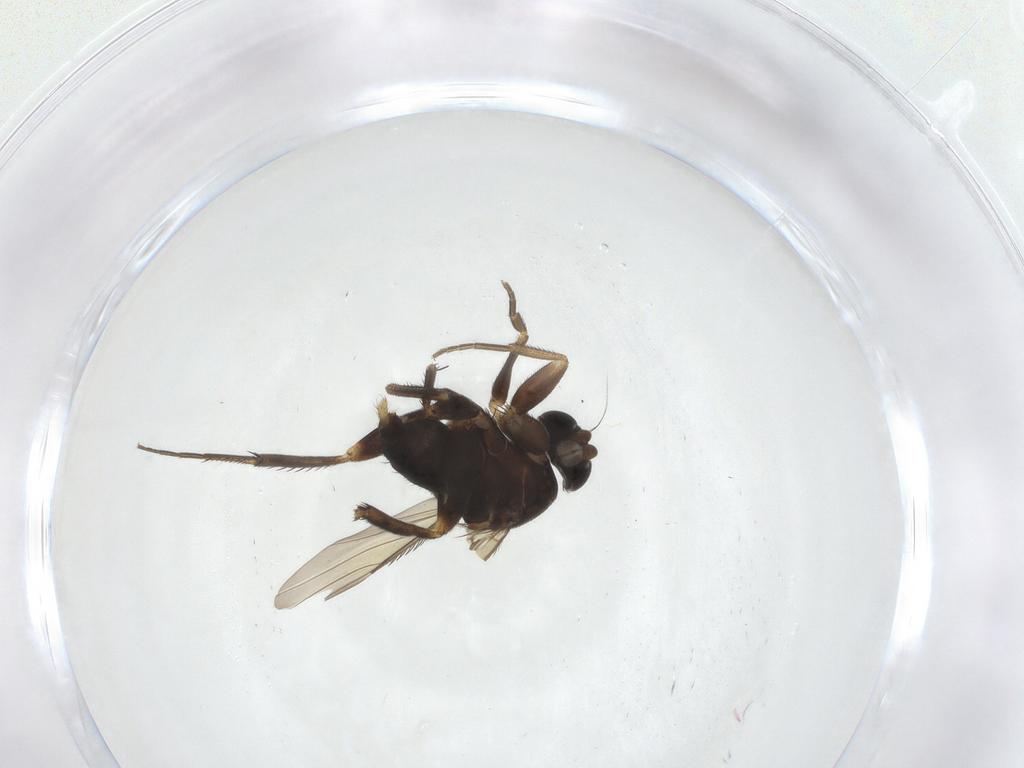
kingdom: Animalia
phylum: Arthropoda
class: Insecta
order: Diptera
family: Phoridae
